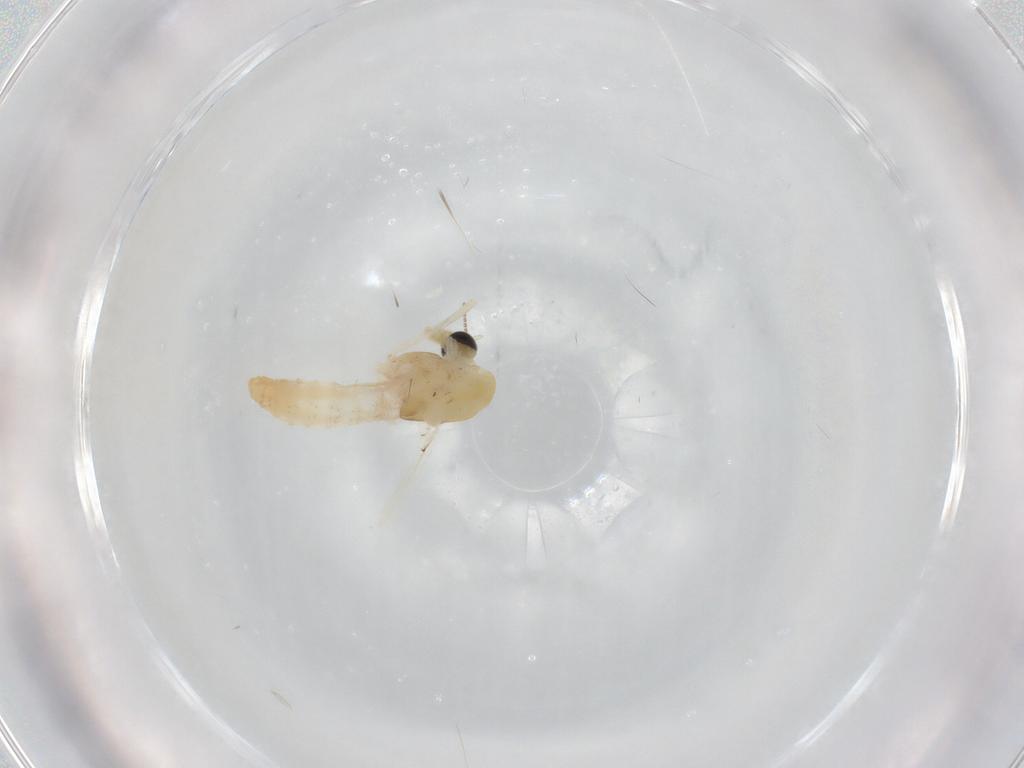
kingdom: Animalia
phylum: Arthropoda
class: Insecta
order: Diptera
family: Chironomidae
